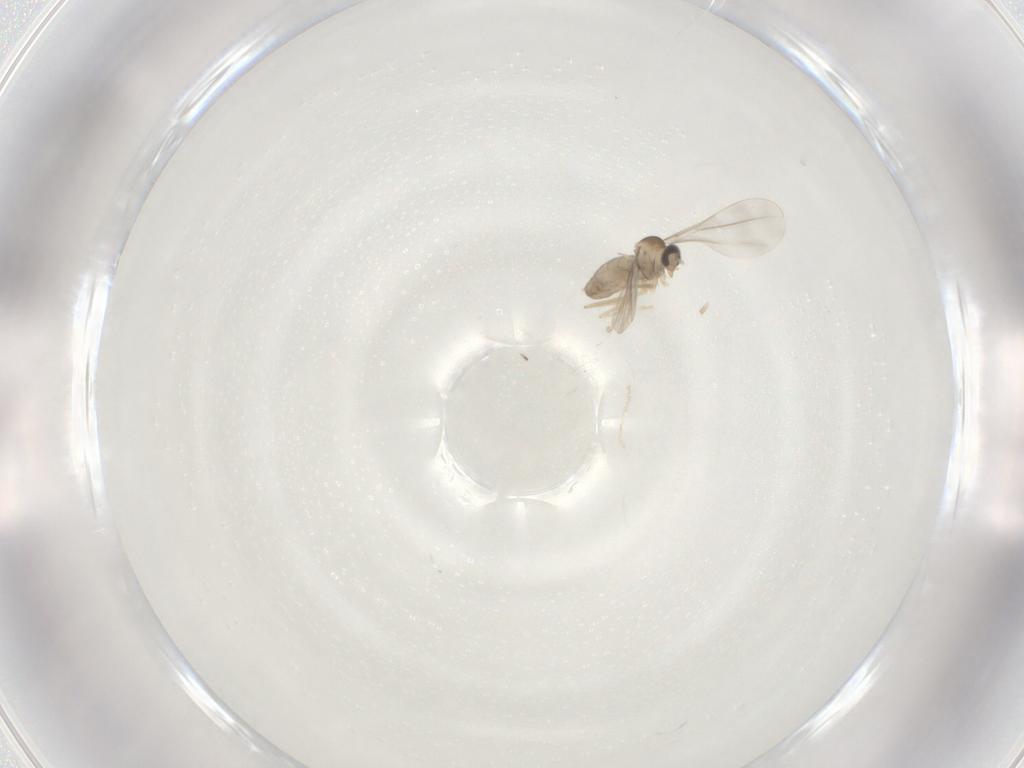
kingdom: Animalia
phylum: Arthropoda
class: Insecta
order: Diptera
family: Cecidomyiidae
